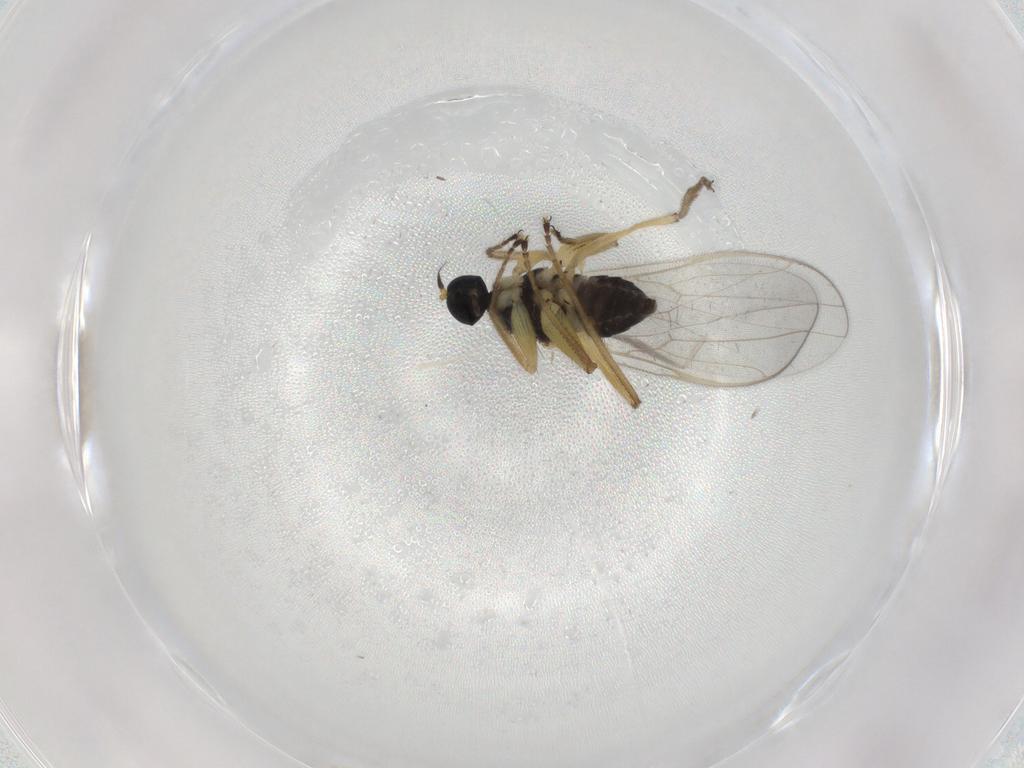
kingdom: Animalia
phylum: Arthropoda
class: Insecta
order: Diptera
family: Hybotidae
